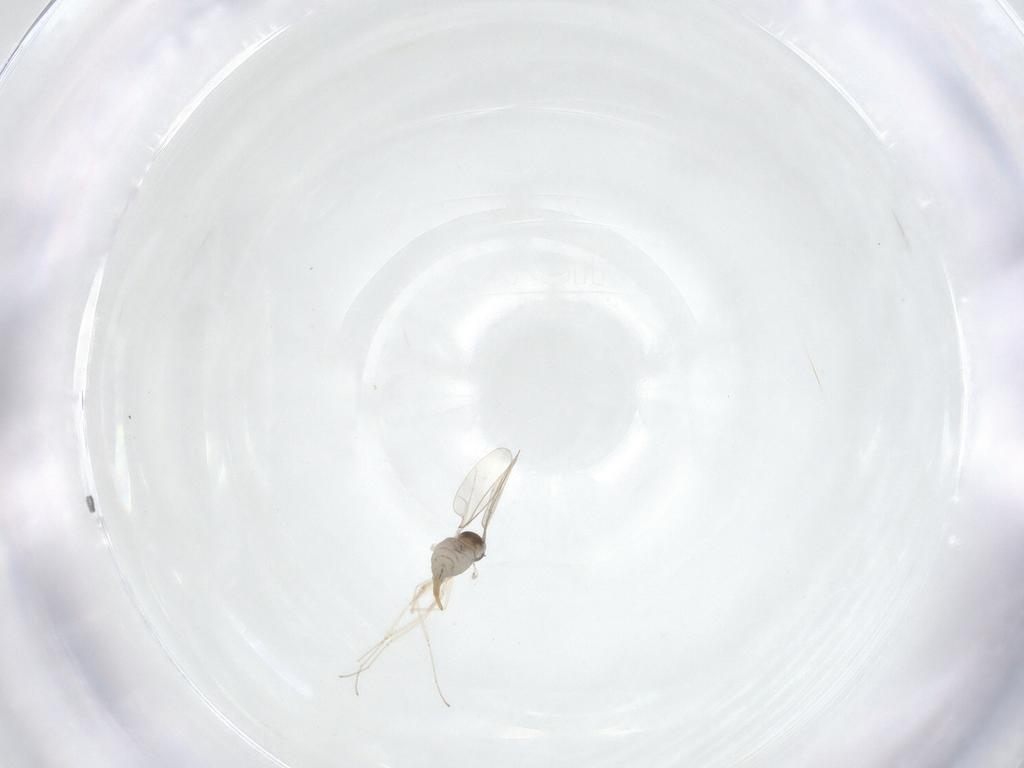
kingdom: Animalia
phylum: Arthropoda
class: Insecta
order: Diptera
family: Cecidomyiidae
